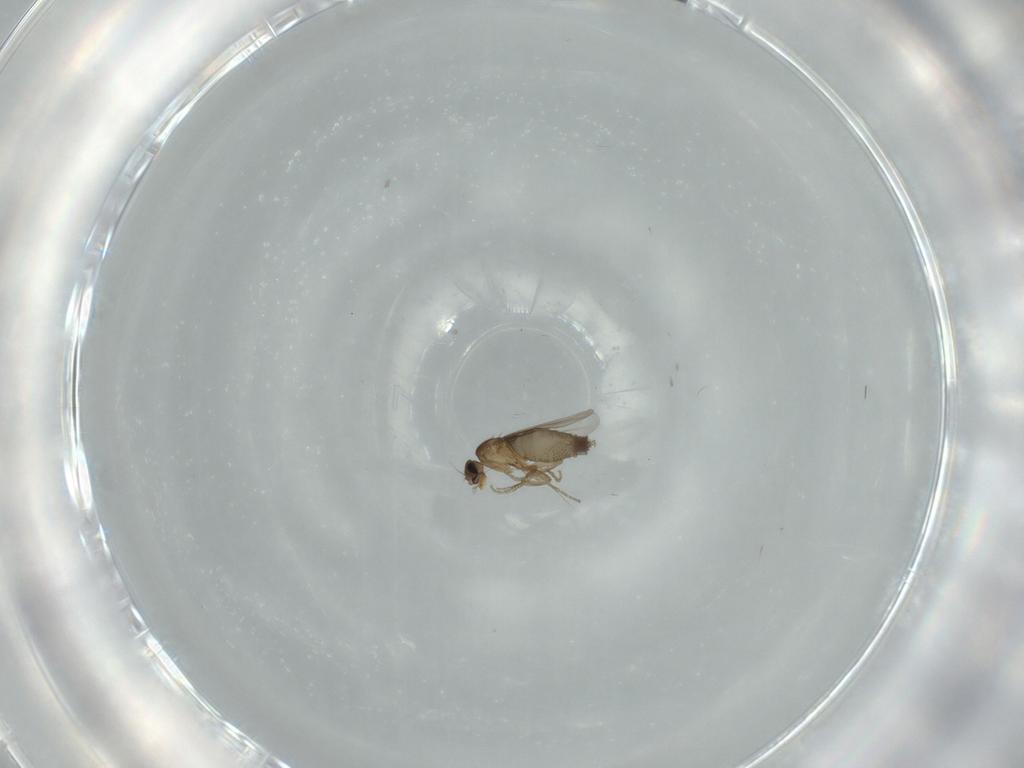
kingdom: Animalia
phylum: Arthropoda
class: Insecta
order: Diptera
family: Phoridae
